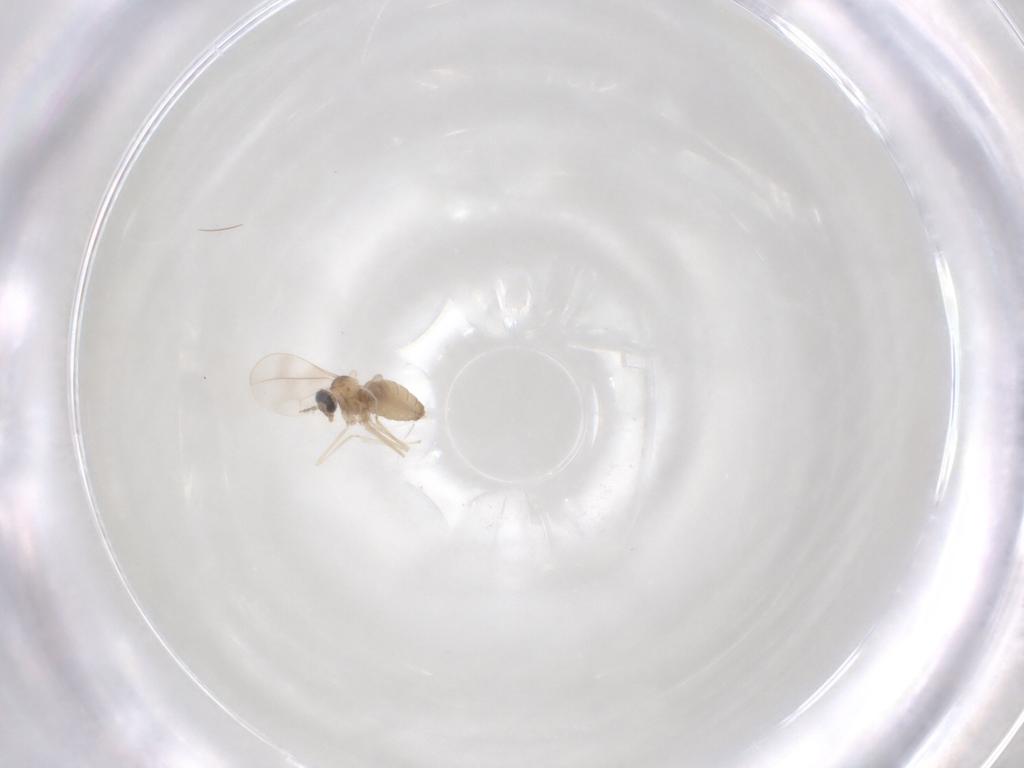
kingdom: Animalia
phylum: Arthropoda
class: Insecta
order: Diptera
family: Cecidomyiidae
